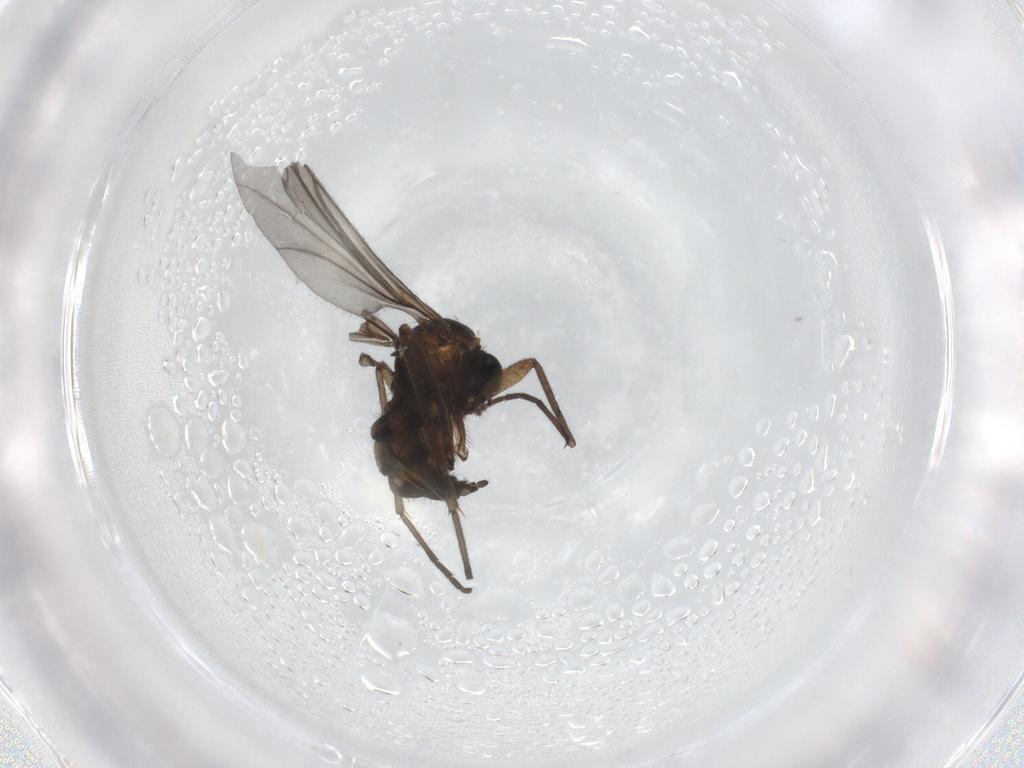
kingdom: Animalia
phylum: Arthropoda
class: Insecta
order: Diptera
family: Sciaridae
